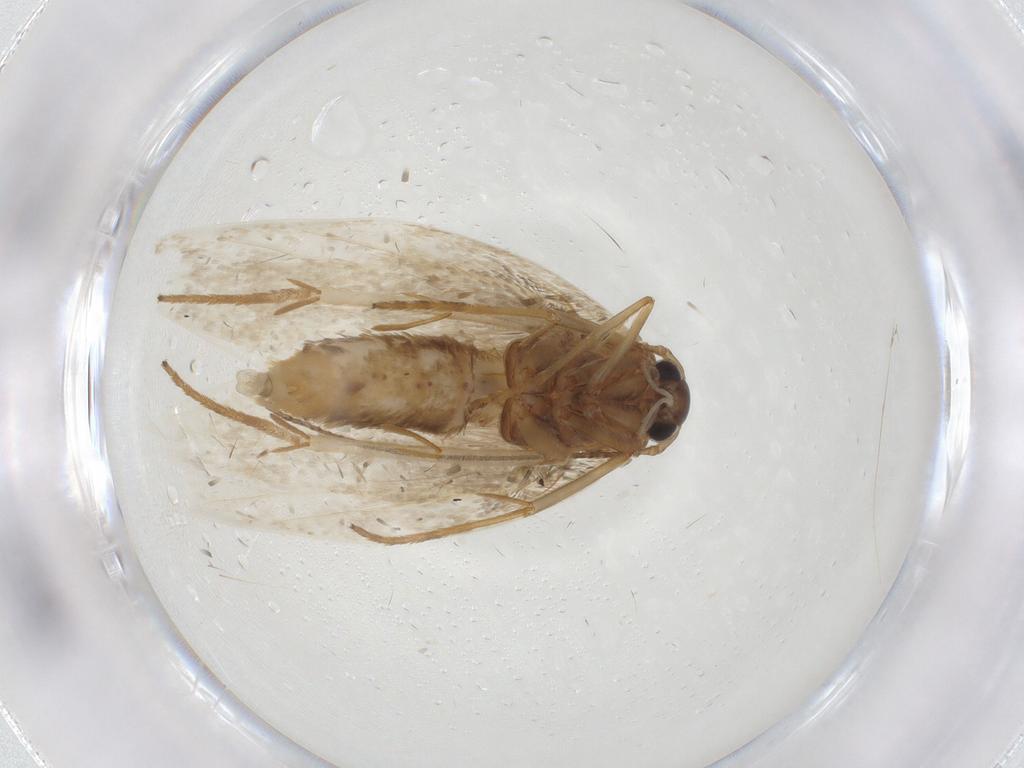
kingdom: Animalia
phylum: Arthropoda
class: Insecta
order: Lepidoptera
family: Erebidae
